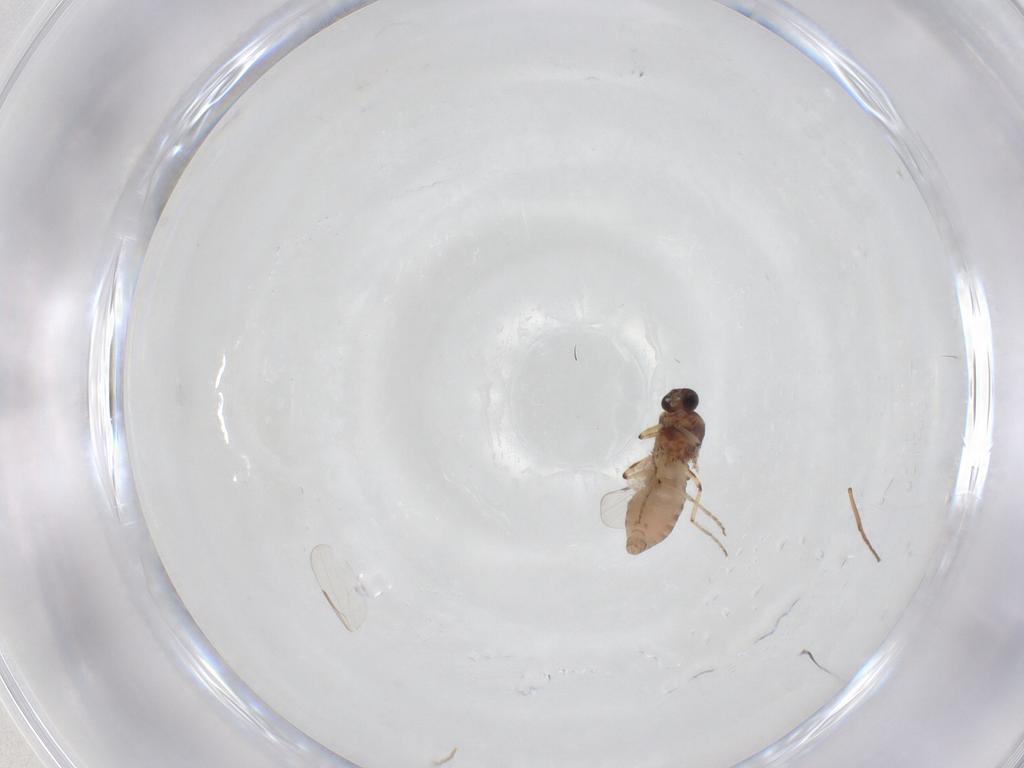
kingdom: Animalia
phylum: Arthropoda
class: Insecta
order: Diptera
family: Ceratopogonidae
